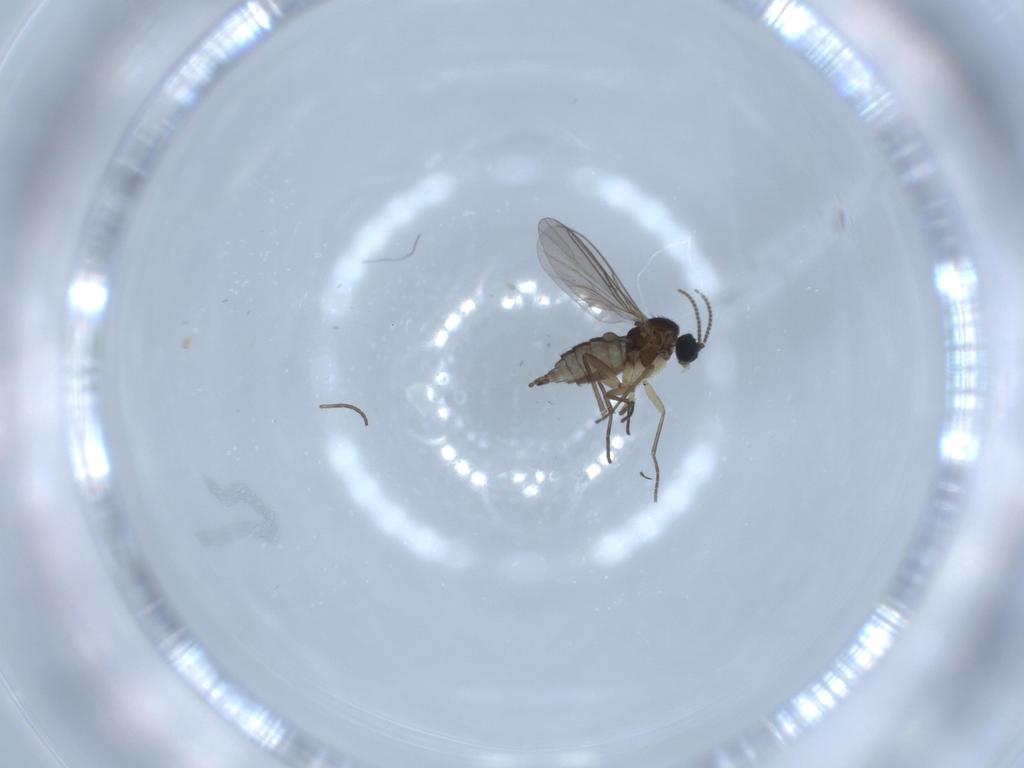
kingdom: Animalia
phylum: Arthropoda
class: Insecta
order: Diptera
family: Sciaridae
